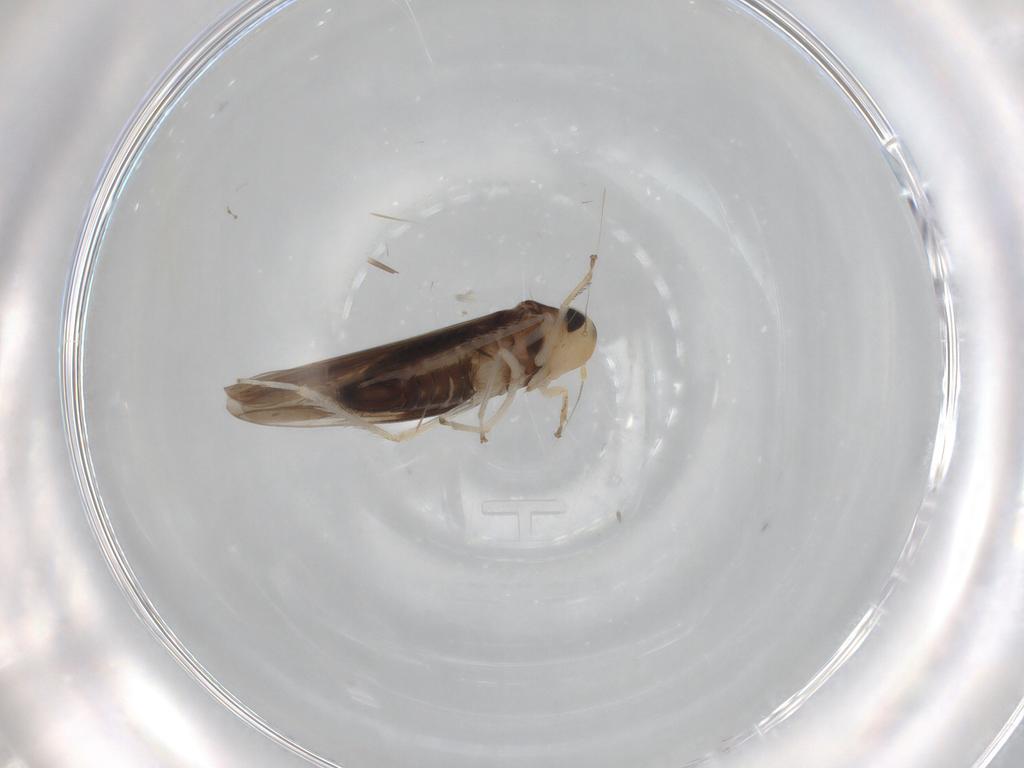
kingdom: Animalia
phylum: Arthropoda
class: Insecta
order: Hemiptera
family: Cicadellidae
